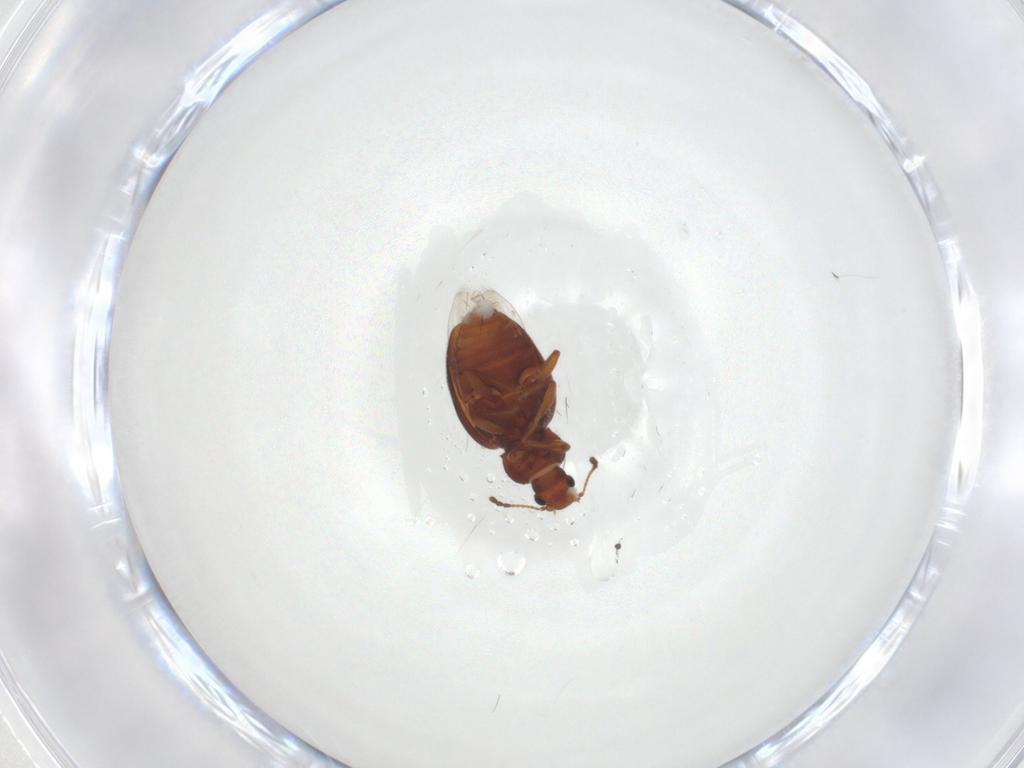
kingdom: Animalia
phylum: Arthropoda
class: Insecta
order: Coleoptera
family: Latridiidae
